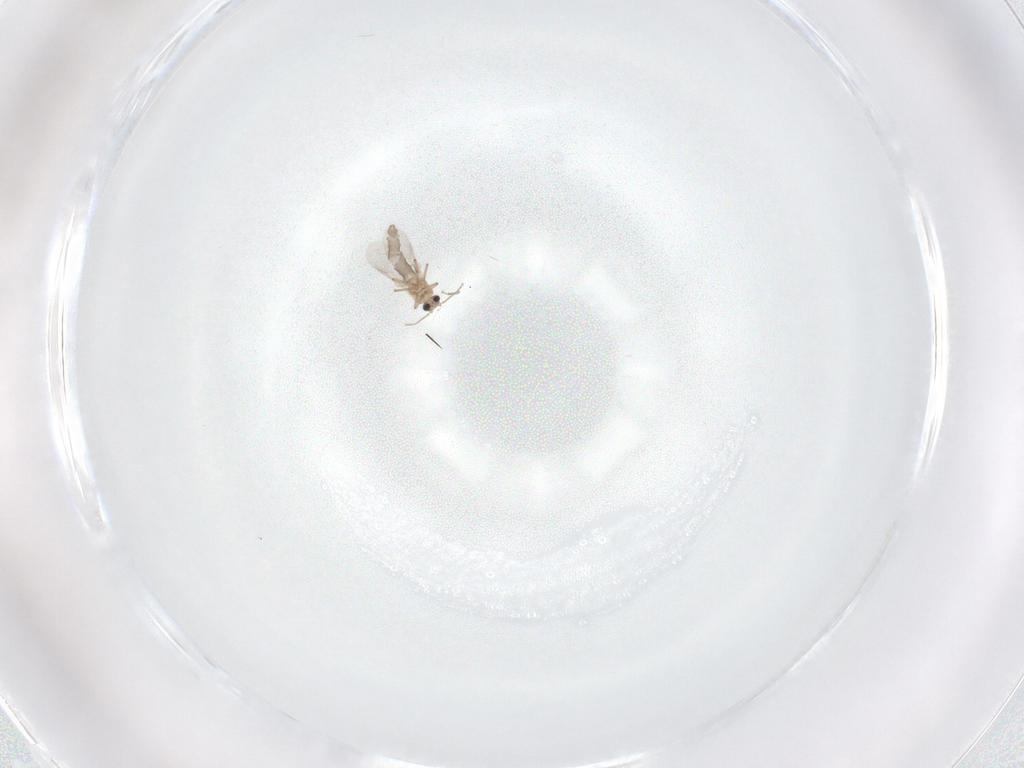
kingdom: Animalia
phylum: Arthropoda
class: Insecta
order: Diptera
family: Ceratopogonidae
